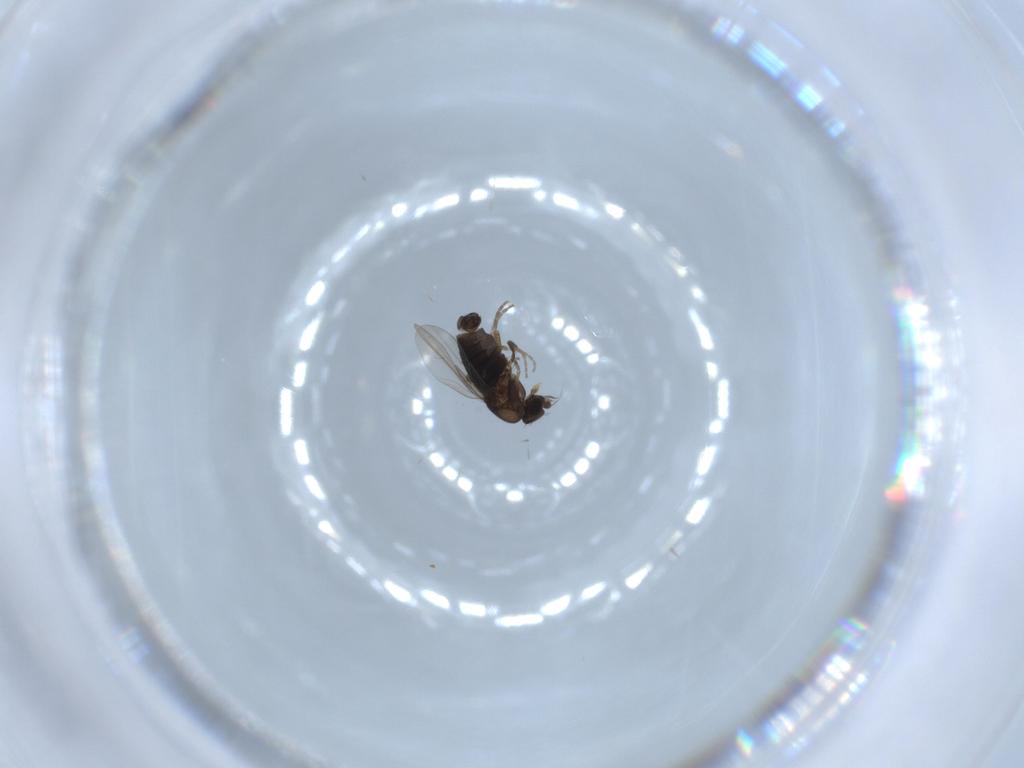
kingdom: Animalia
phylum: Arthropoda
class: Insecta
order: Diptera
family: Phoridae
